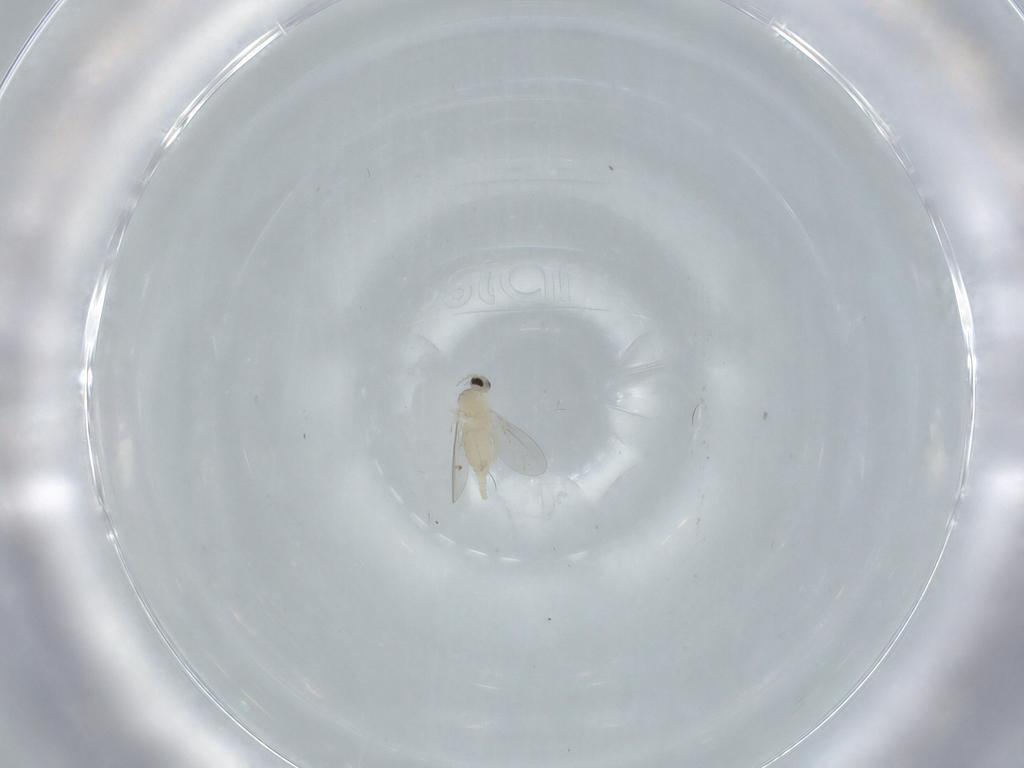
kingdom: Animalia
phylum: Arthropoda
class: Insecta
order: Diptera
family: Cecidomyiidae
